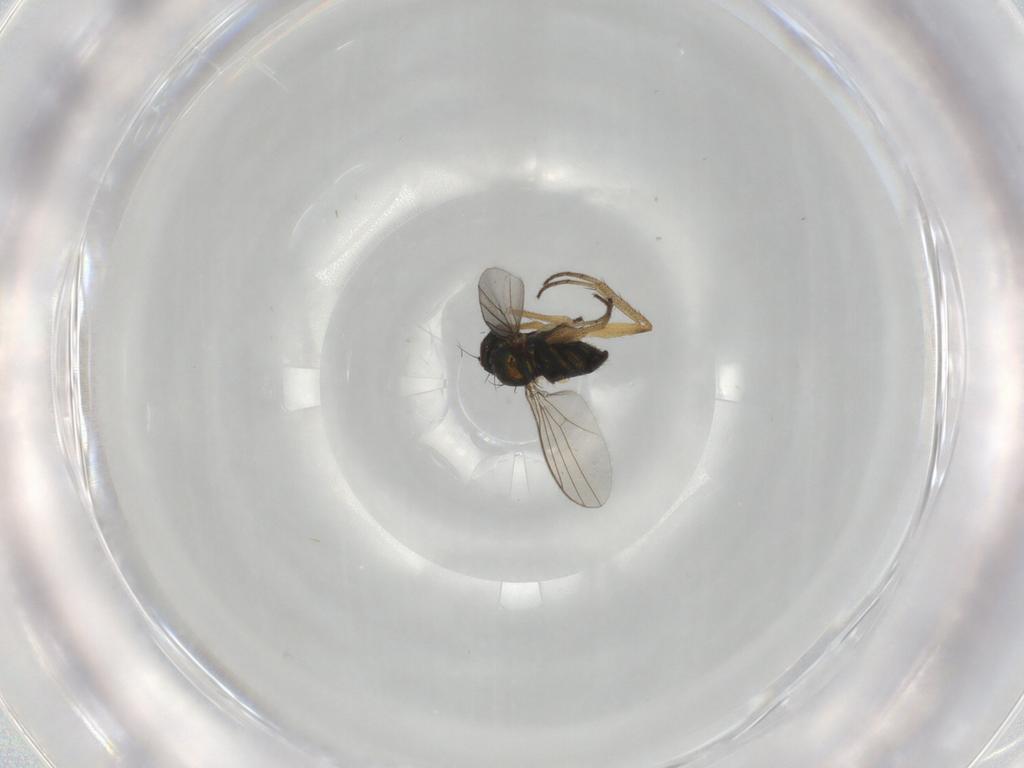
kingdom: Animalia
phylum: Arthropoda
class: Insecta
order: Diptera
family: Dolichopodidae
